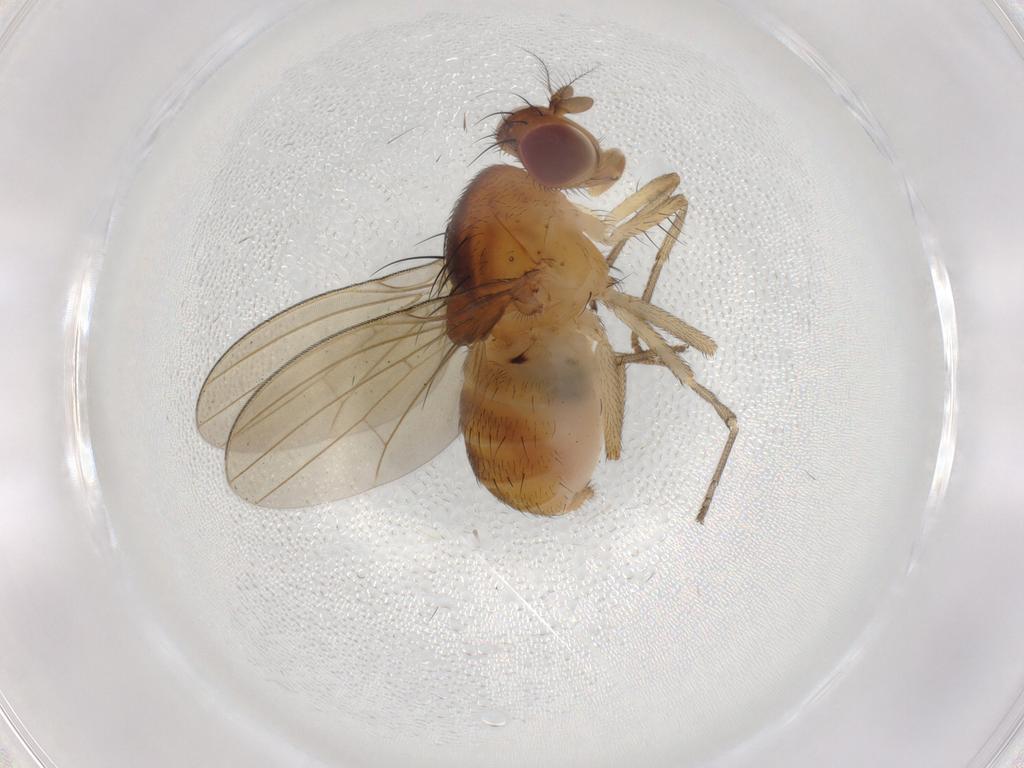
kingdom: Animalia
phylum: Arthropoda
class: Insecta
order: Diptera
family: Lauxaniidae
